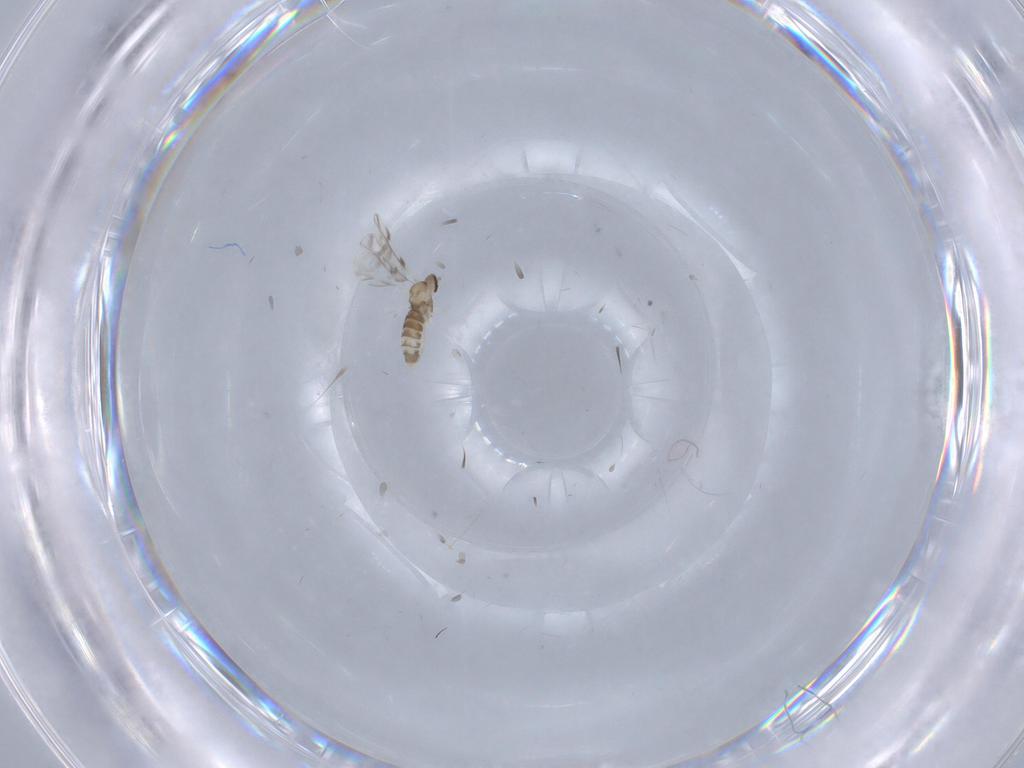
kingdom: Animalia
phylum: Arthropoda
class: Insecta
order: Diptera
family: Cecidomyiidae
